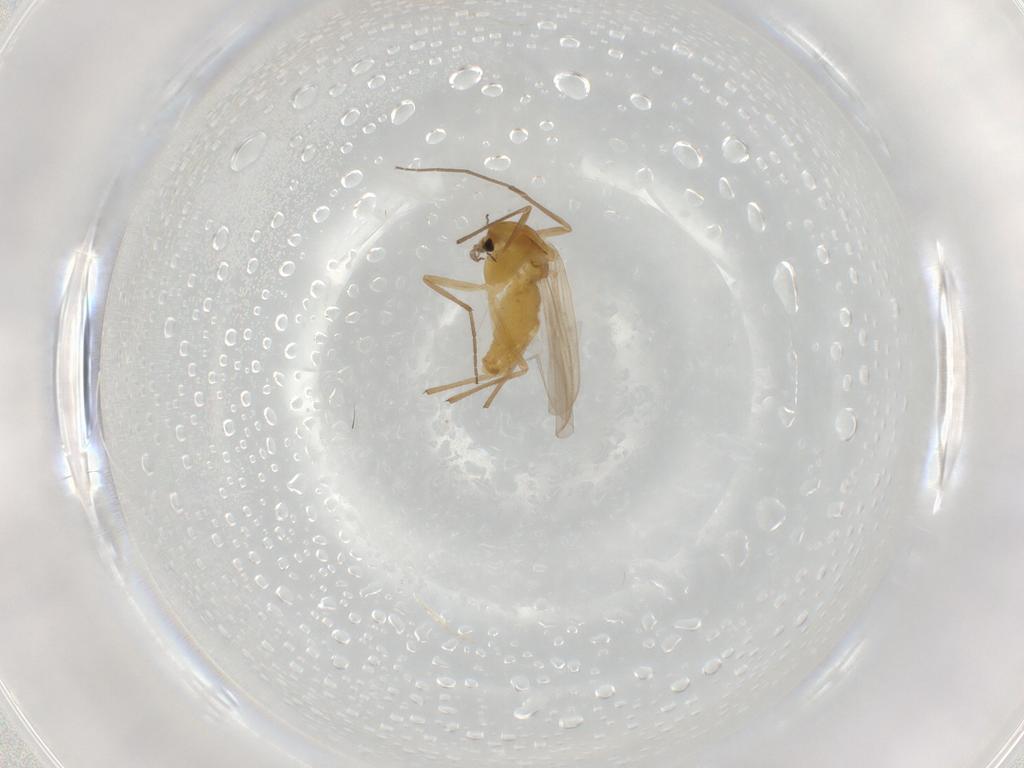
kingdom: Animalia
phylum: Arthropoda
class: Insecta
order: Diptera
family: Chironomidae
